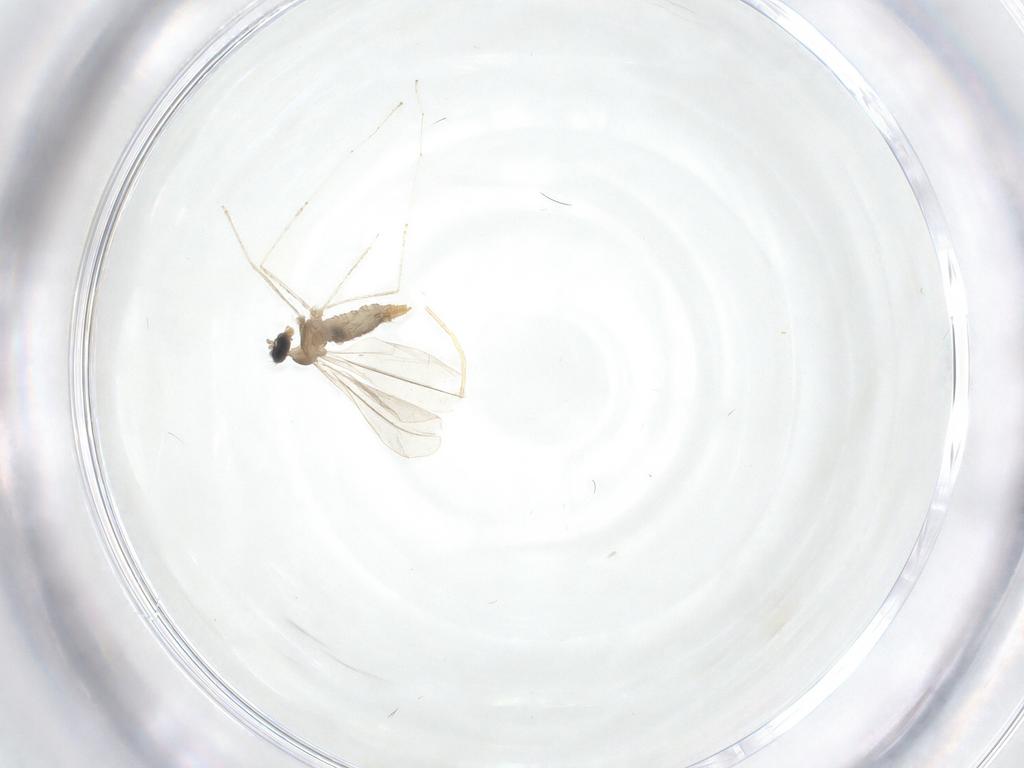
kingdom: Animalia
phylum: Arthropoda
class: Insecta
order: Diptera
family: Cecidomyiidae
